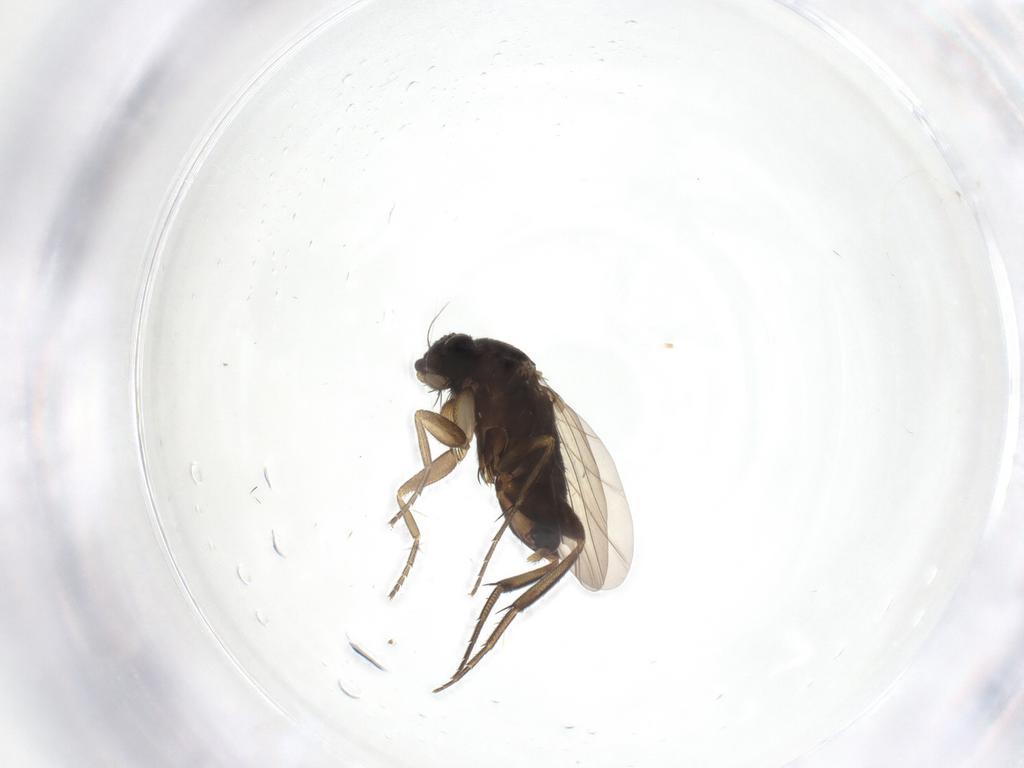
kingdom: Animalia
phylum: Arthropoda
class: Insecta
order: Diptera
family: Phoridae
